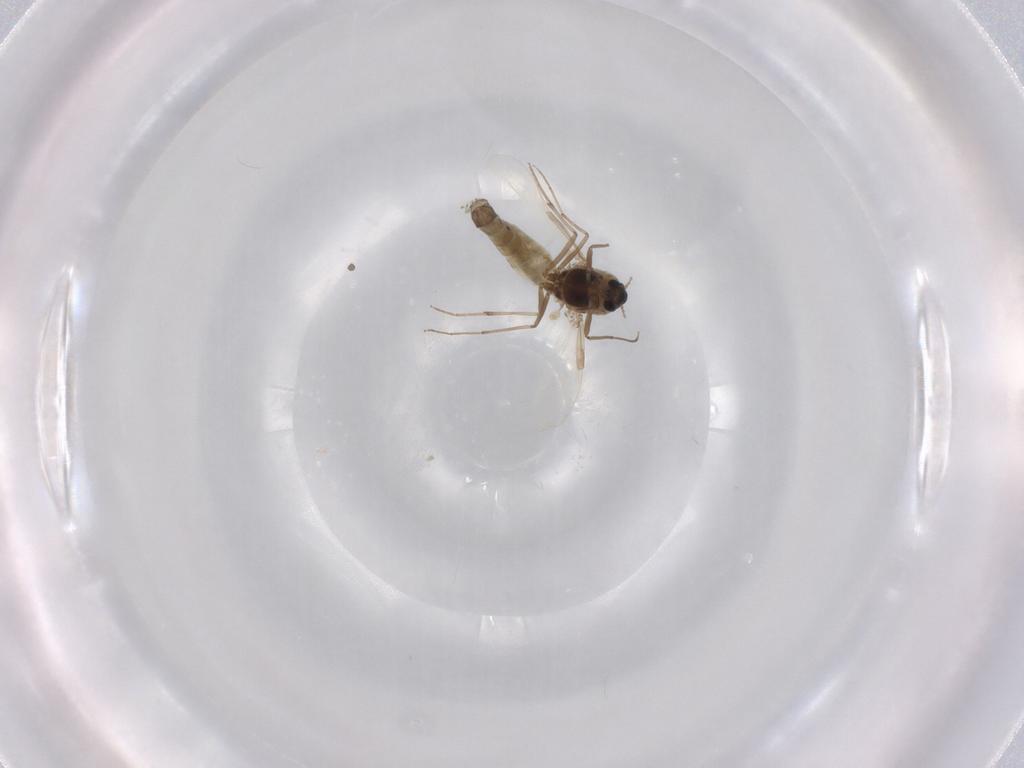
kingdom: Animalia
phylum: Arthropoda
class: Insecta
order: Diptera
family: Chironomidae
